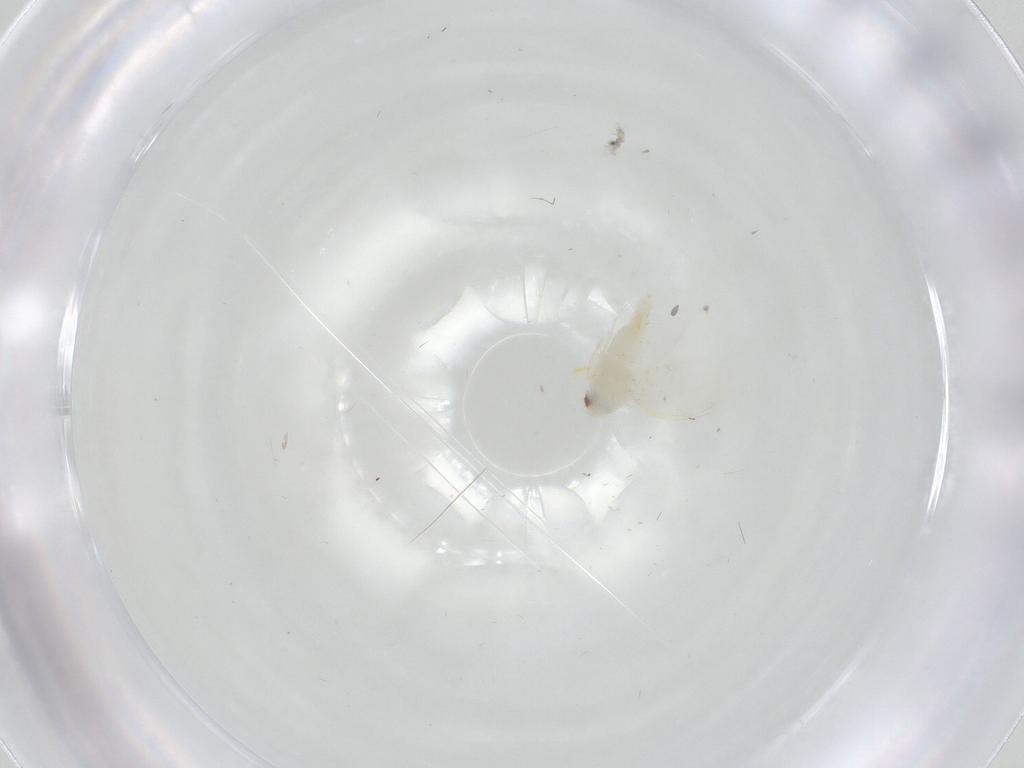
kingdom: Animalia
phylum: Arthropoda
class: Insecta
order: Hemiptera
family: Aleyrodidae
